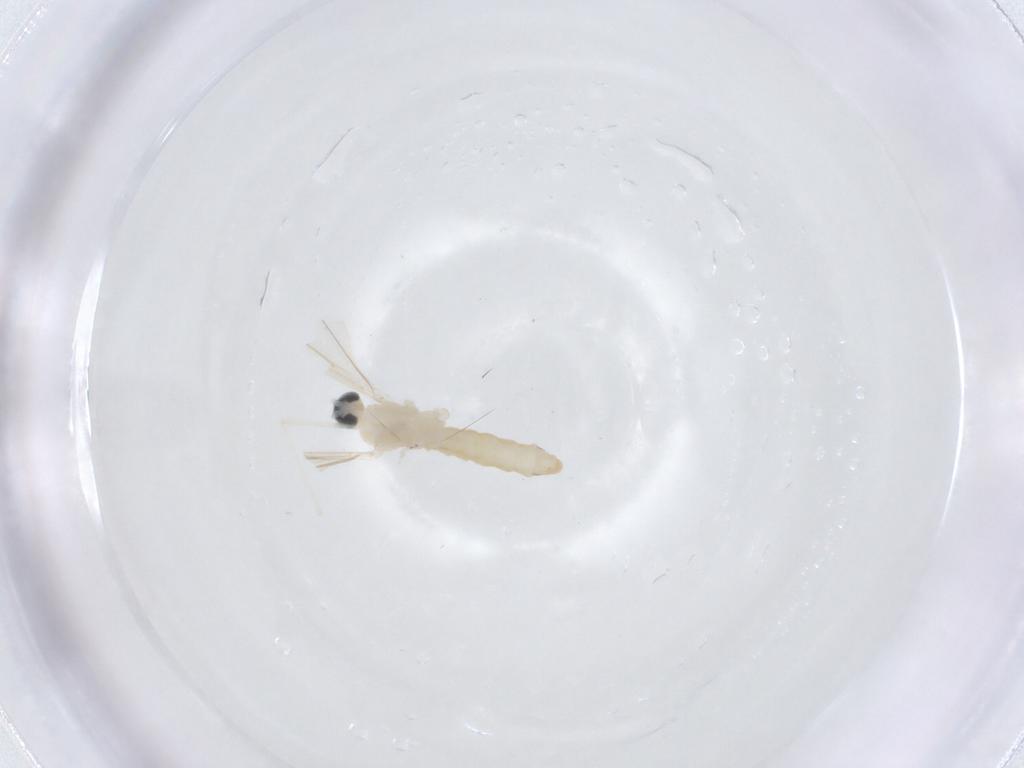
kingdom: Animalia
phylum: Arthropoda
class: Insecta
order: Diptera
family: Cecidomyiidae
